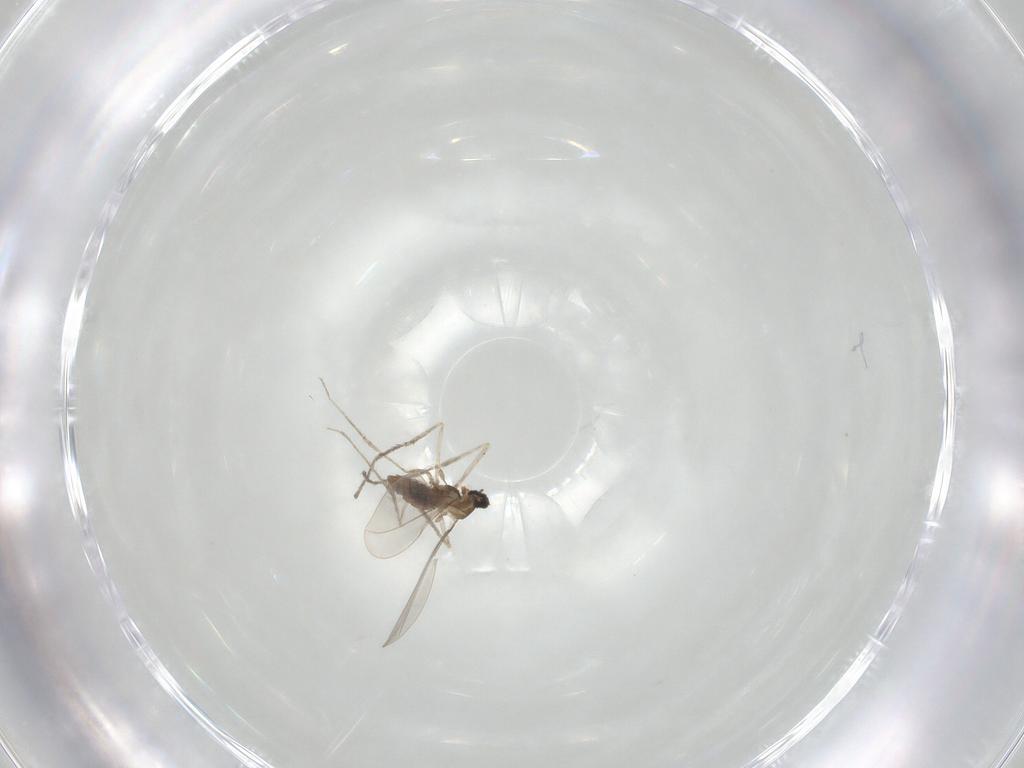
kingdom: Animalia
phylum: Arthropoda
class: Insecta
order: Diptera
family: Cecidomyiidae
